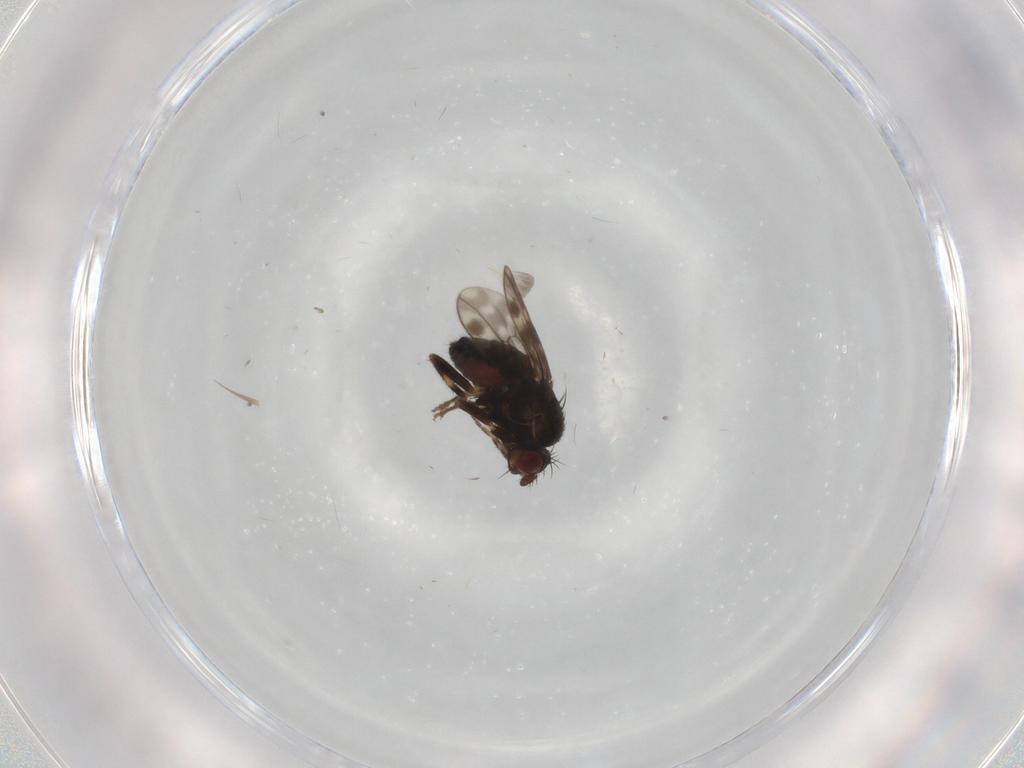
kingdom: Animalia
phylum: Arthropoda
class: Insecta
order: Diptera
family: Sphaeroceridae
